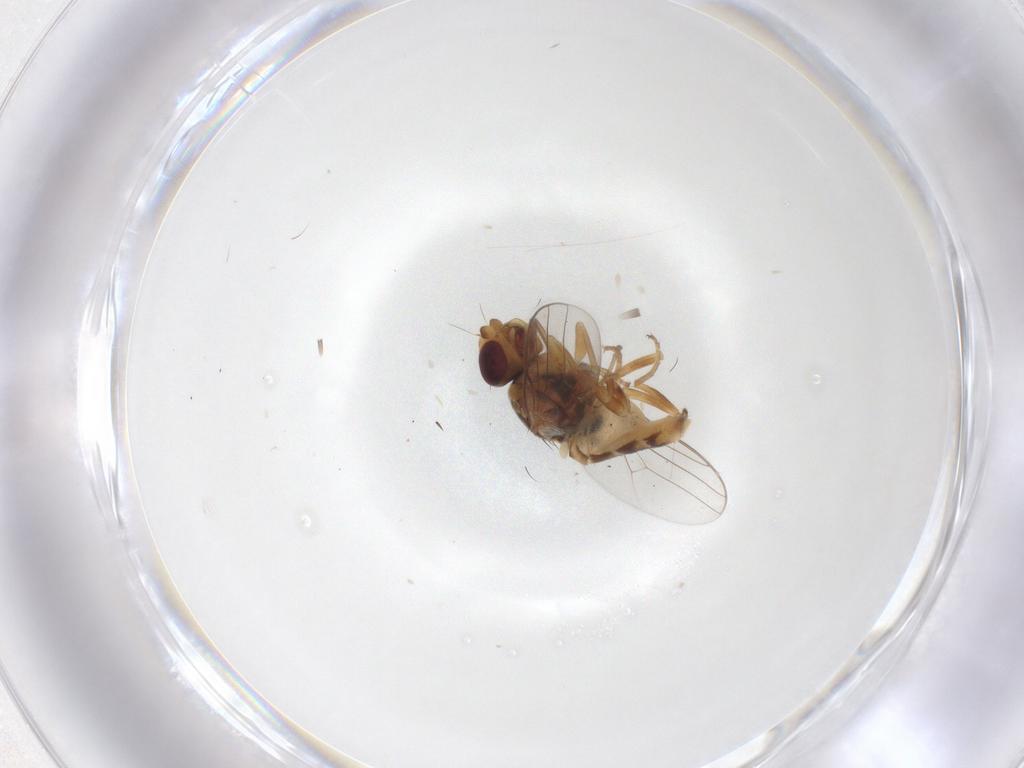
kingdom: Animalia
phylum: Arthropoda
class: Insecta
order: Diptera
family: Chloropidae
